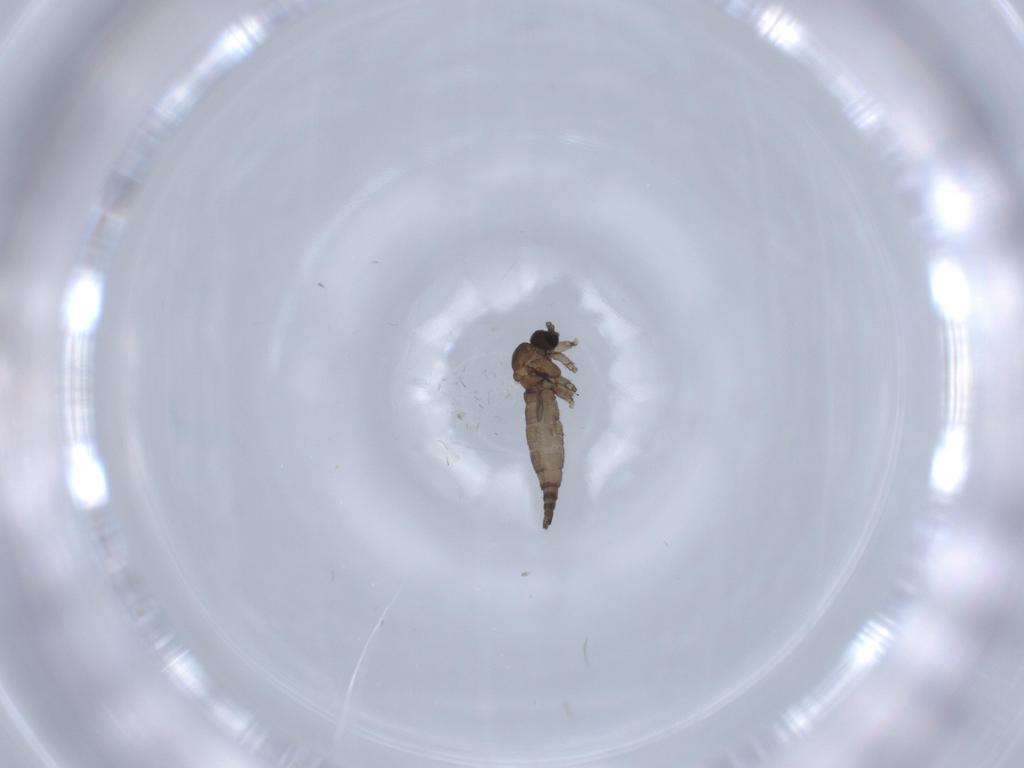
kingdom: Animalia
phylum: Arthropoda
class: Insecta
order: Diptera
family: Sciaridae
